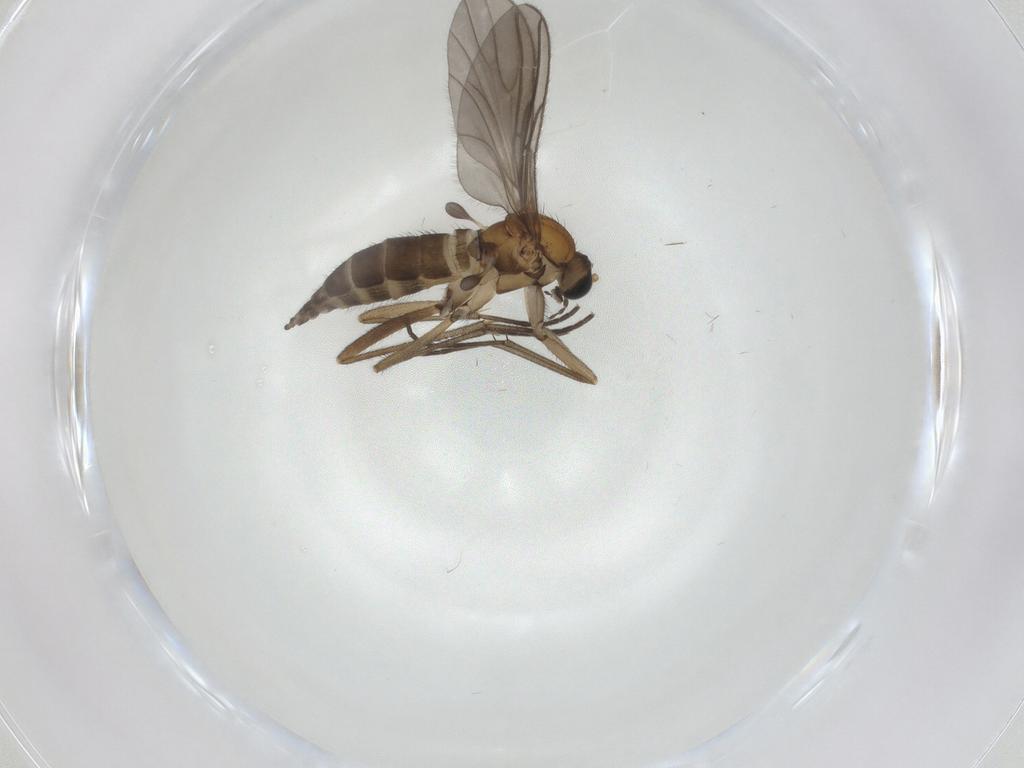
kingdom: Animalia
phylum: Arthropoda
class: Insecta
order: Diptera
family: Sciaridae
